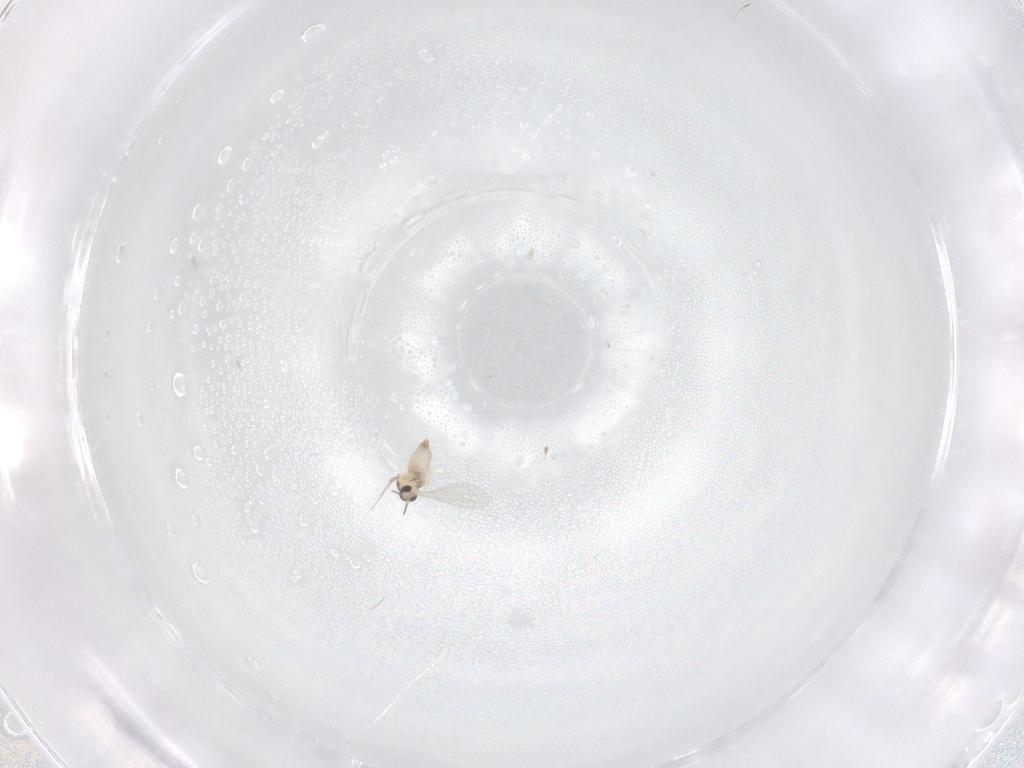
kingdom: Animalia
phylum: Arthropoda
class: Insecta
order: Diptera
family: Cecidomyiidae
